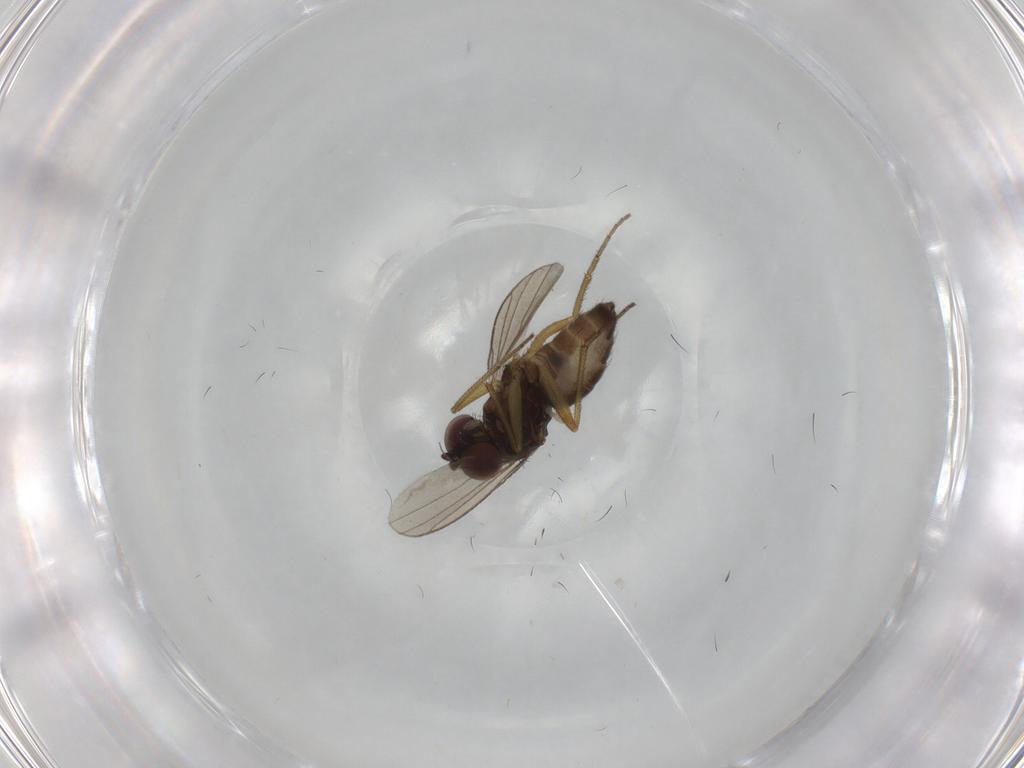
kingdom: Animalia
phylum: Arthropoda
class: Insecta
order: Diptera
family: Dolichopodidae
